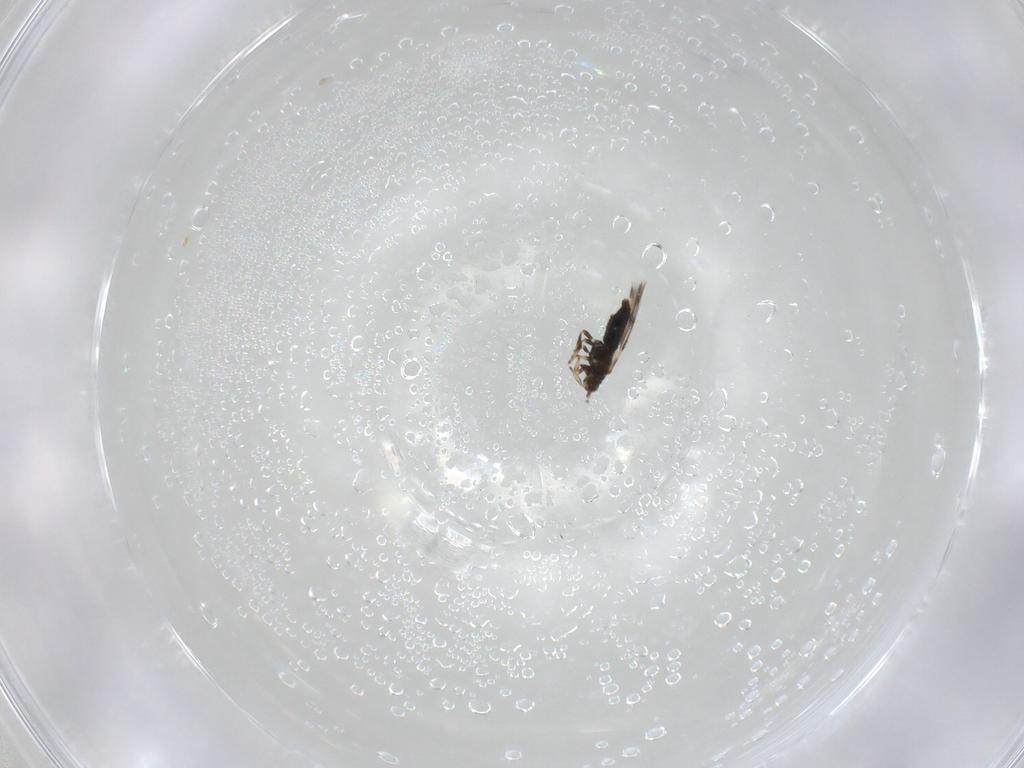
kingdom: Animalia
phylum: Arthropoda
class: Insecta
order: Thysanoptera
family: Thripidae
